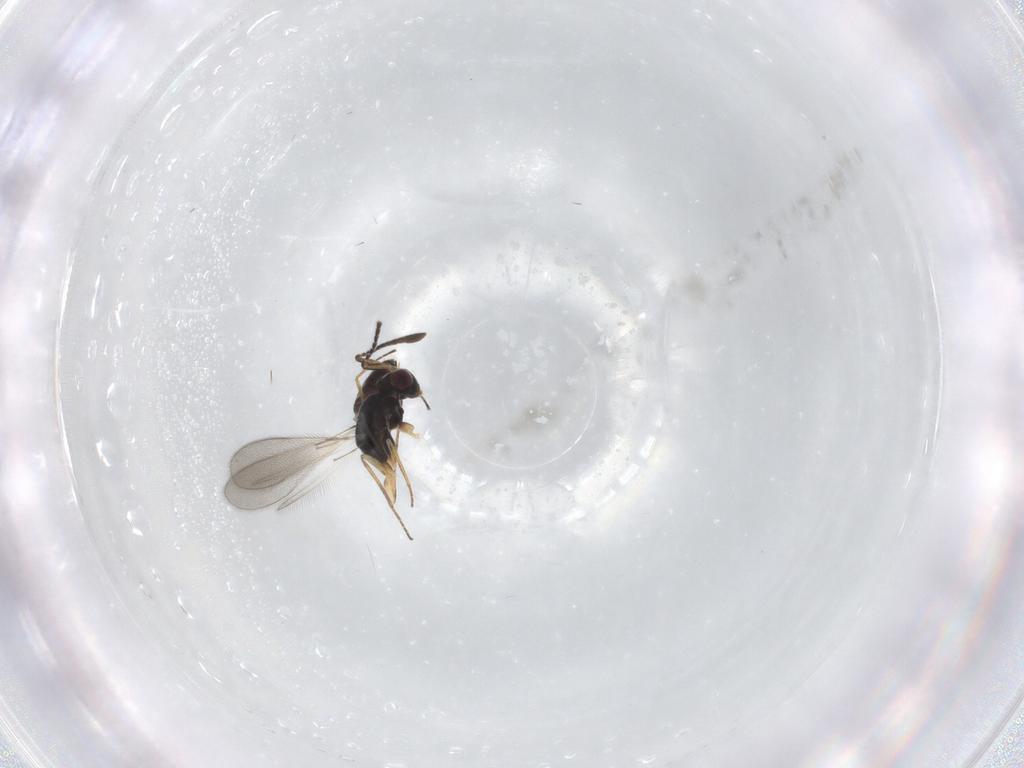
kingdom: Animalia
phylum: Arthropoda
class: Insecta
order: Hymenoptera
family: Mymaridae
